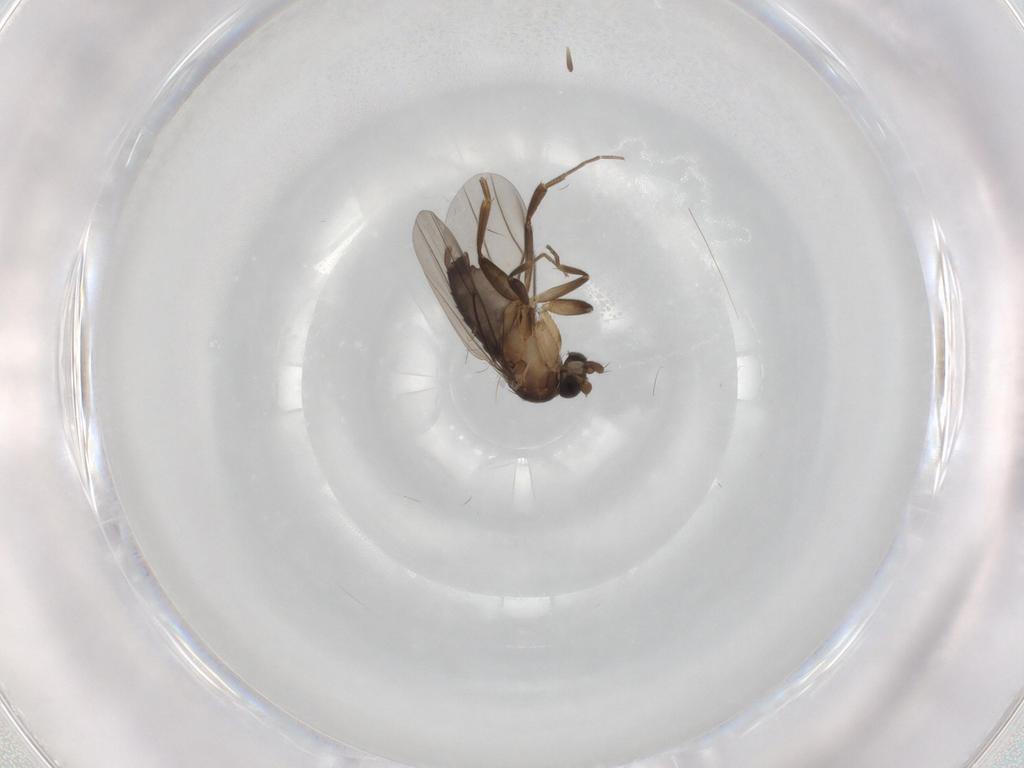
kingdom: Animalia
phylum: Arthropoda
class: Insecta
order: Diptera
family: Phoridae
